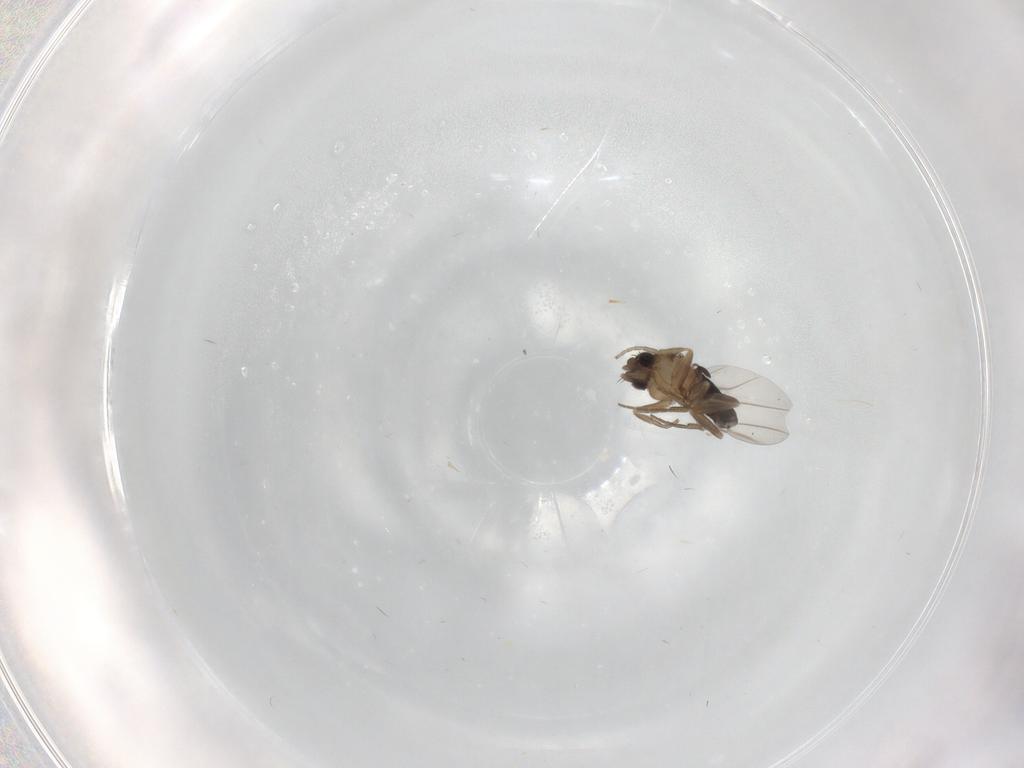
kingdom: Animalia
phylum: Arthropoda
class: Insecta
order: Diptera
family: Phoridae
